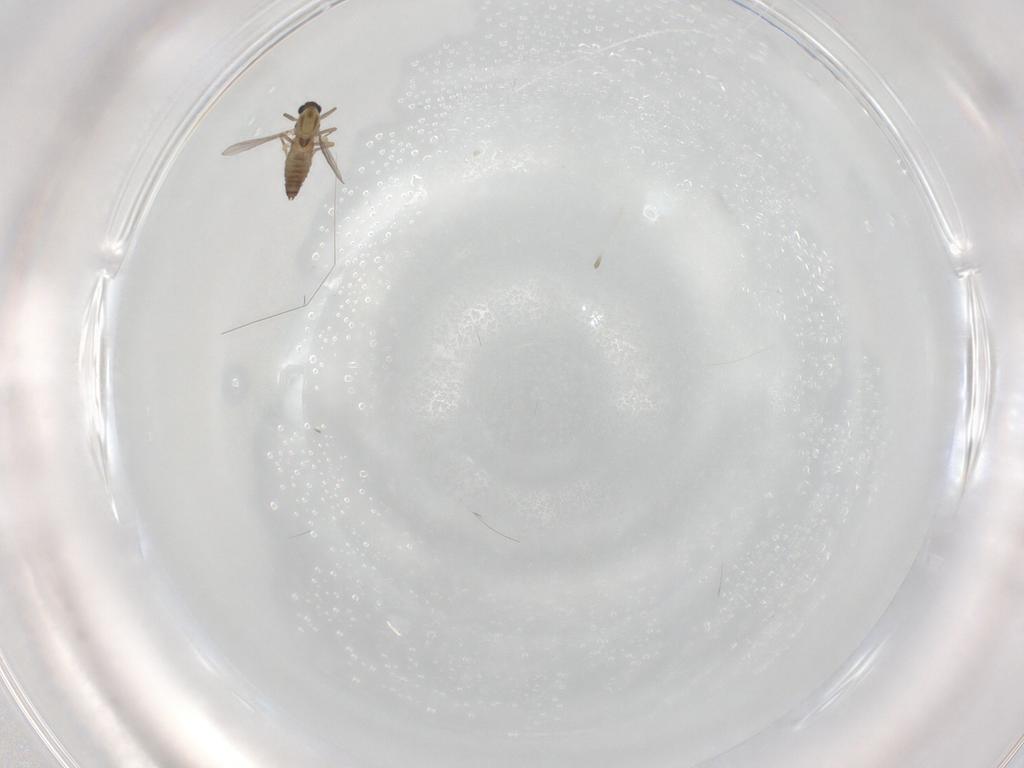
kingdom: Animalia
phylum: Arthropoda
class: Insecta
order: Diptera
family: Chironomidae
